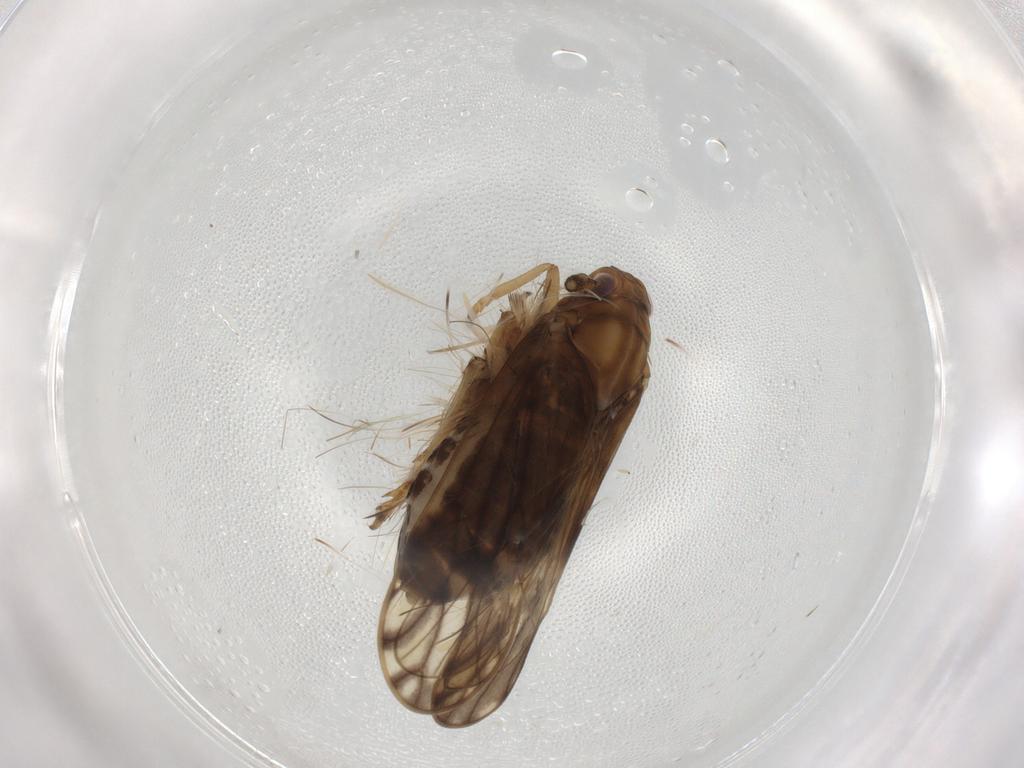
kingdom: Animalia
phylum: Arthropoda
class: Insecta
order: Hemiptera
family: Delphacidae
